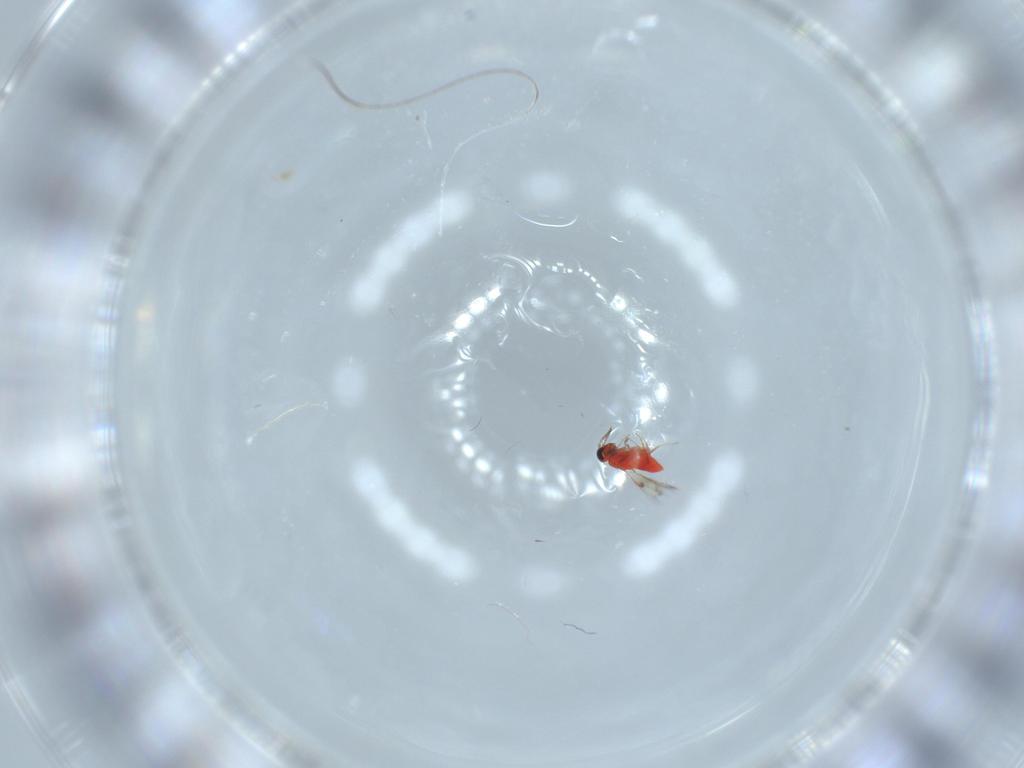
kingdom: Animalia
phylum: Arthropoda
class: Insecta
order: Hymenoptera
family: Trichogrammatidae
